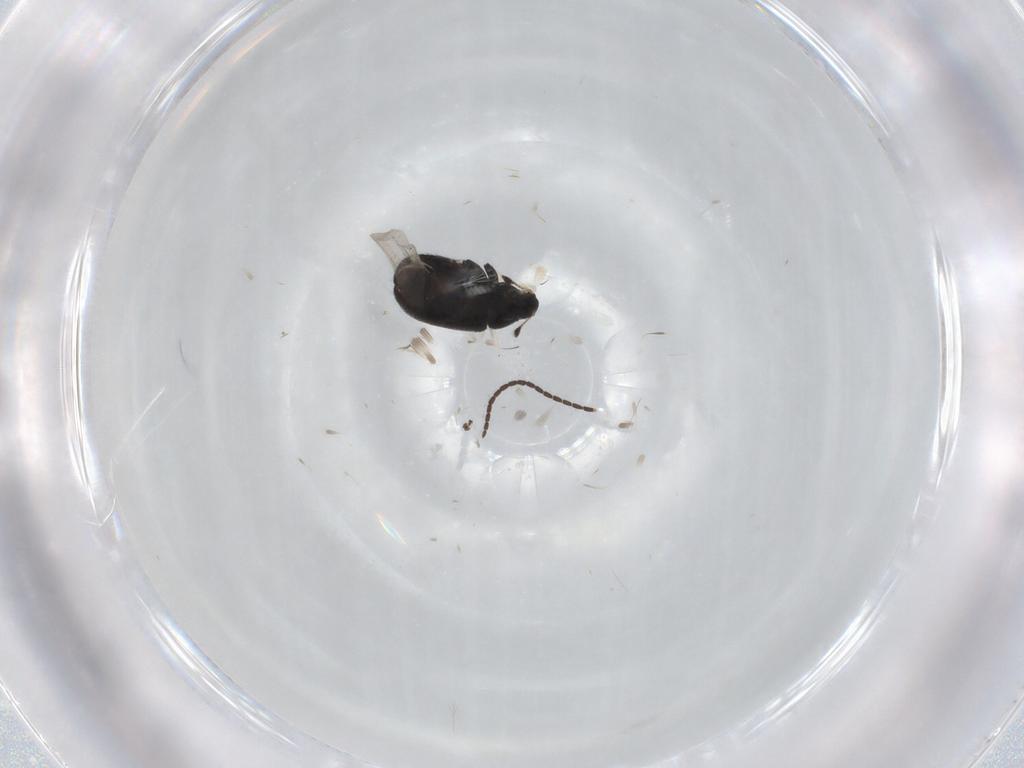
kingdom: Animalia
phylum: Arthropoda
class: Insecta
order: Coleoptera
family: Curculionidae
